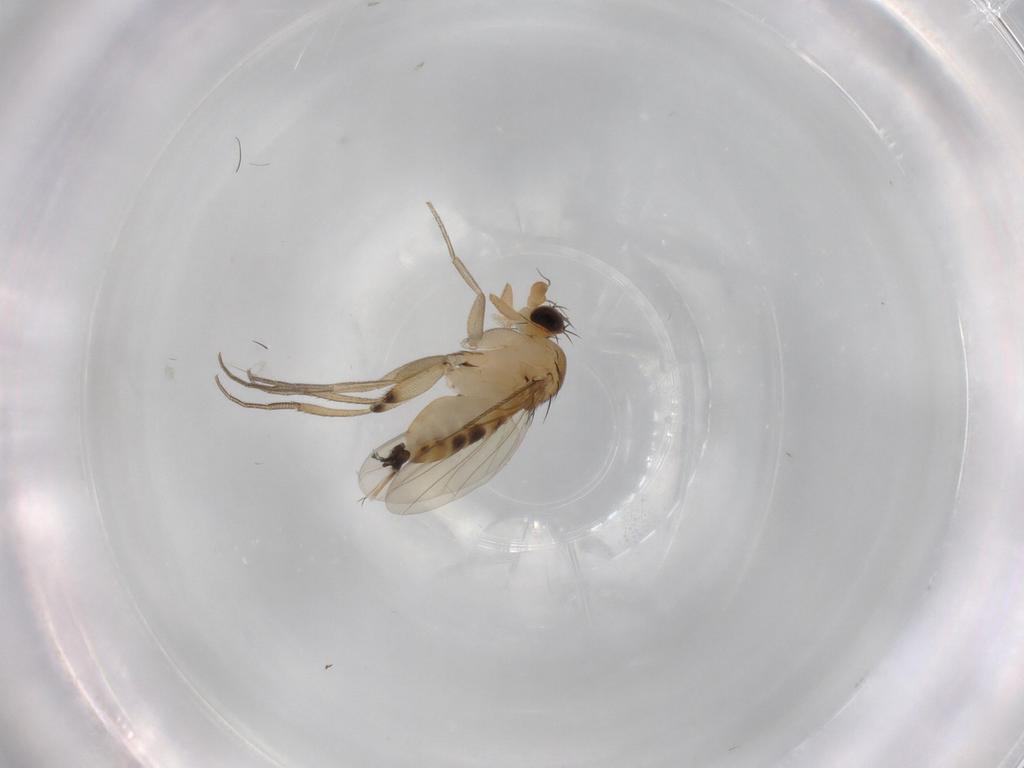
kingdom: Animalia
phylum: Arthropoda
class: Insecta
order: Diptera
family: Phoridae
